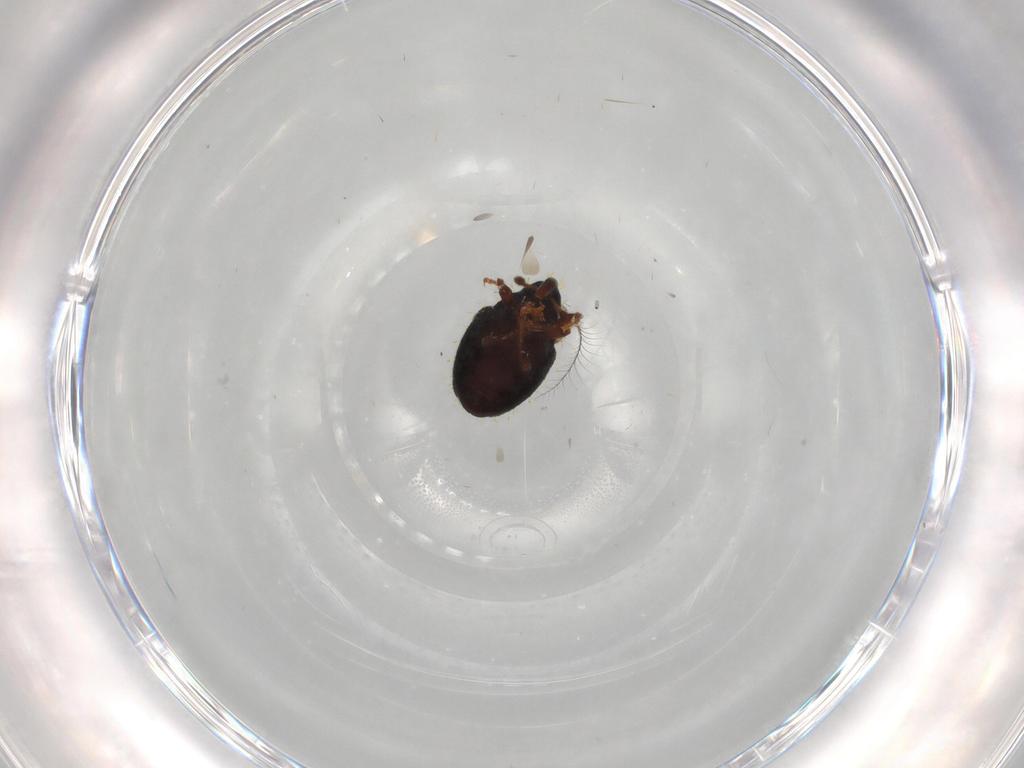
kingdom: Animalia
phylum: Arthropoda
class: Insecta
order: Coleoptera
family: Curculionidae
